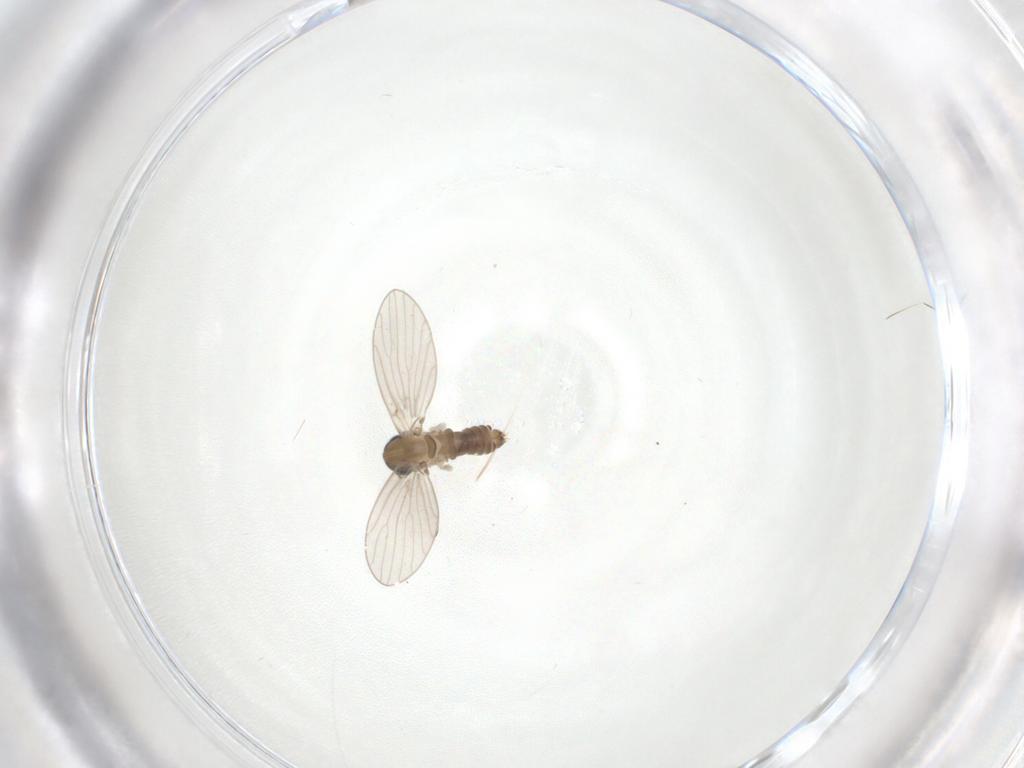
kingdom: Animalia
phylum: Arthropoda
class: Insecta
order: Diptera
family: Psychodidae
